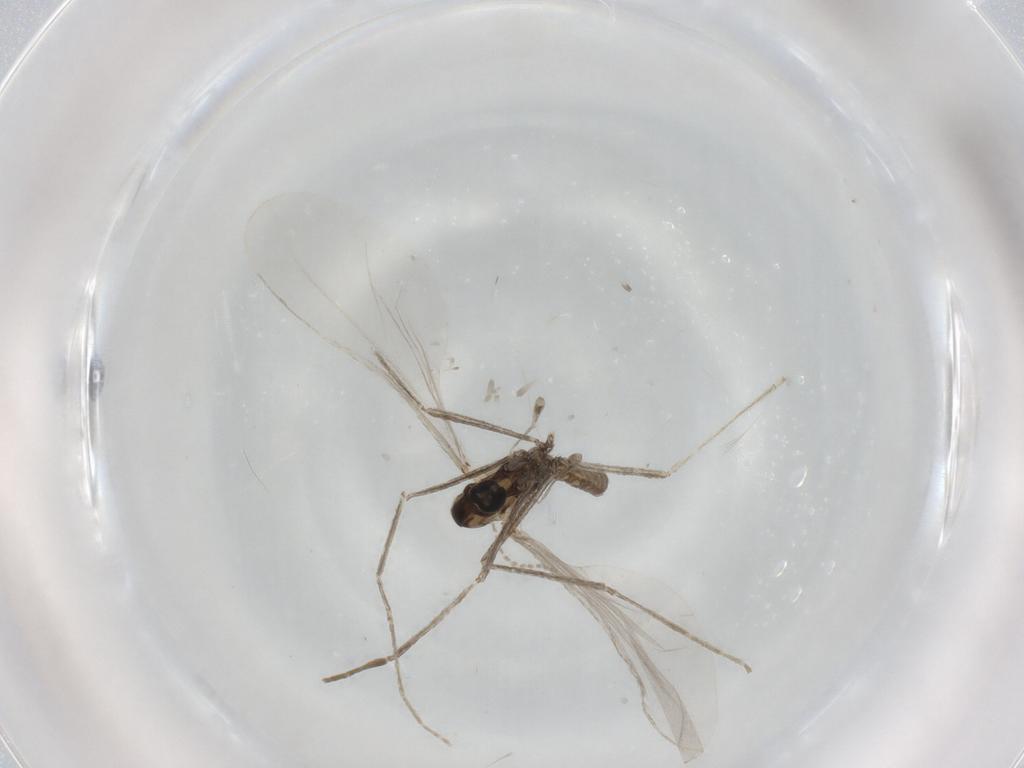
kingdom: Animalia
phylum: Arthropoda
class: Insecta
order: Diptera
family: Cecidomyiidae
